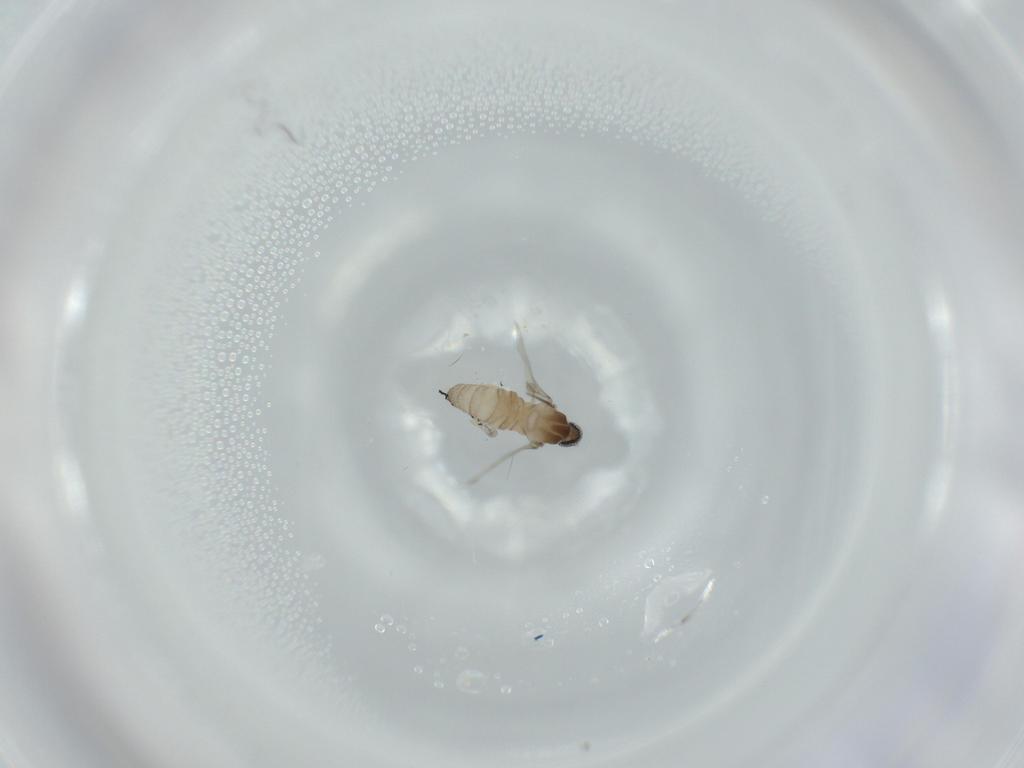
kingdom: Animalia
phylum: Arthropoda
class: Insecta
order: Diptera
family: Cecidomyiidae
